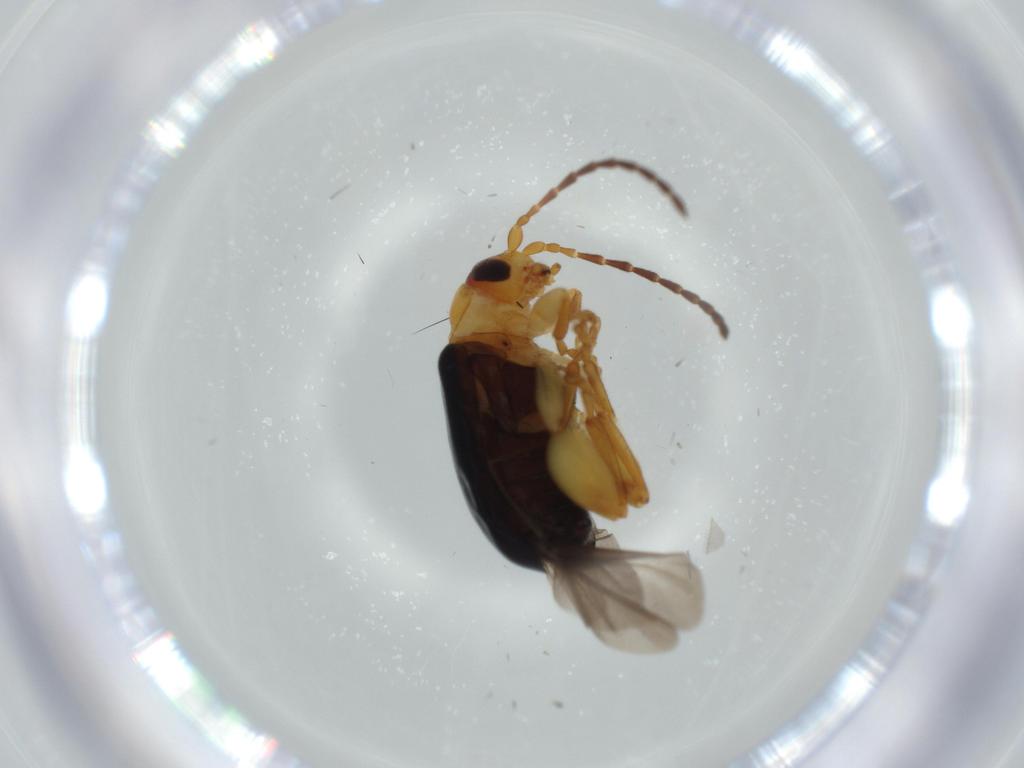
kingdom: Animalia
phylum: Arthropoda
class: Insecta
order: Coleoptera
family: Chrysomelidae
